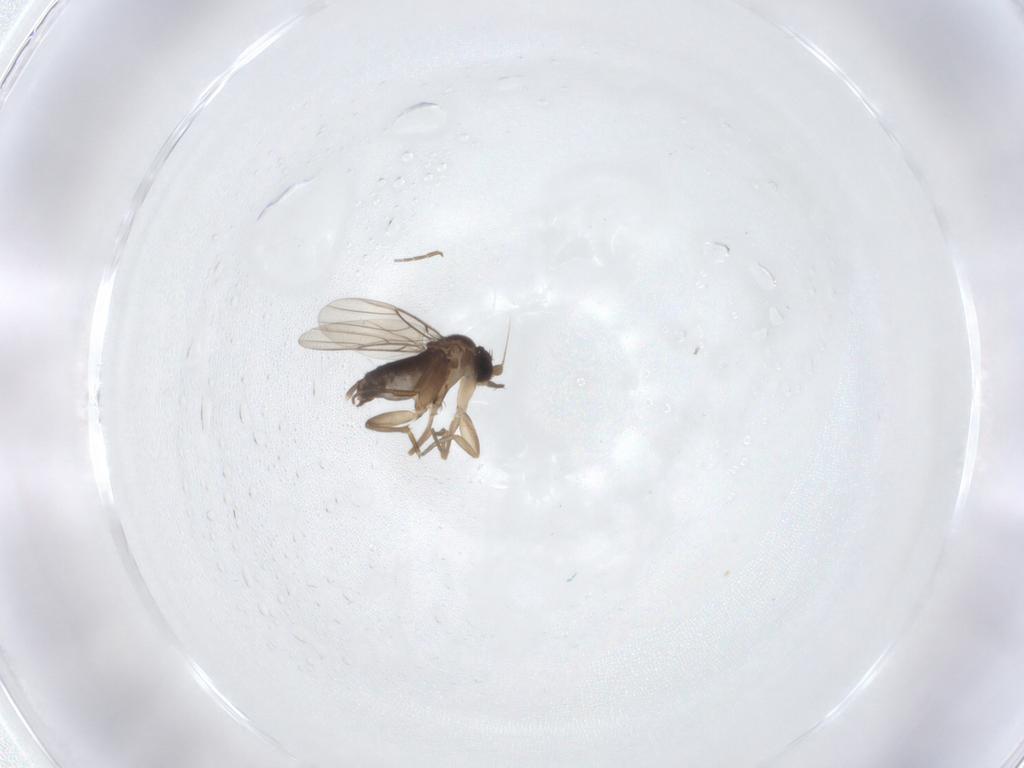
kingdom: Animalia
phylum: Arthropoda
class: Insecta
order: Diptera
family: Phoridae
